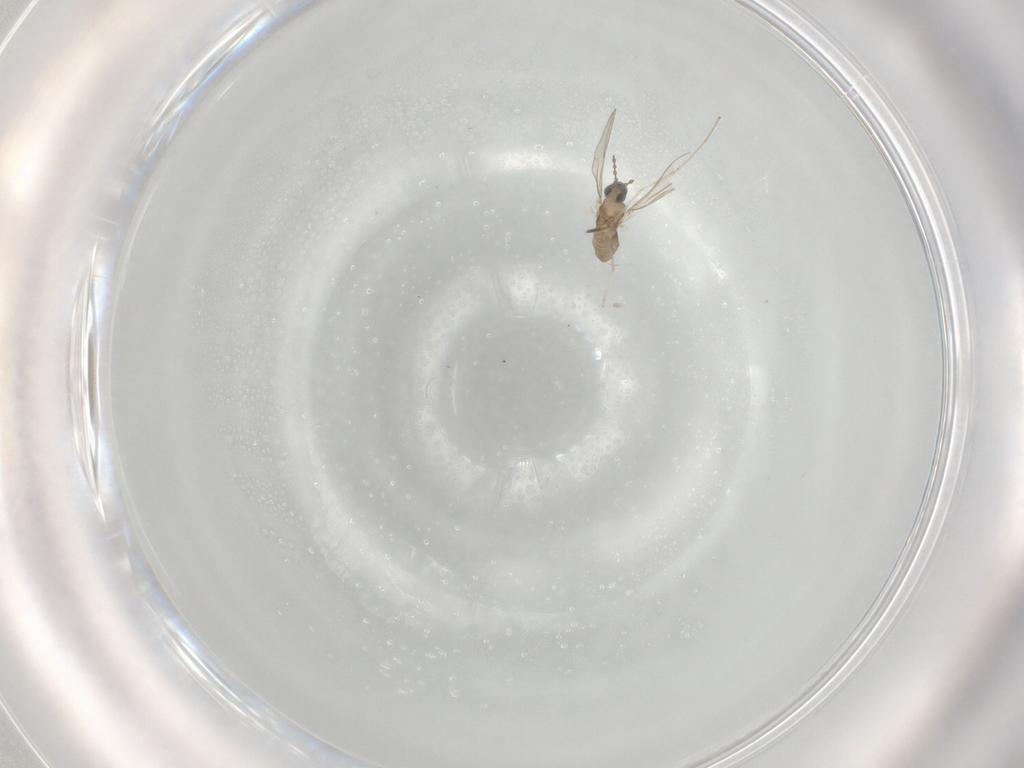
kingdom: Animalia
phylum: Arthropoda
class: Insecta
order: Diptera
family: Cecidomyiidae
